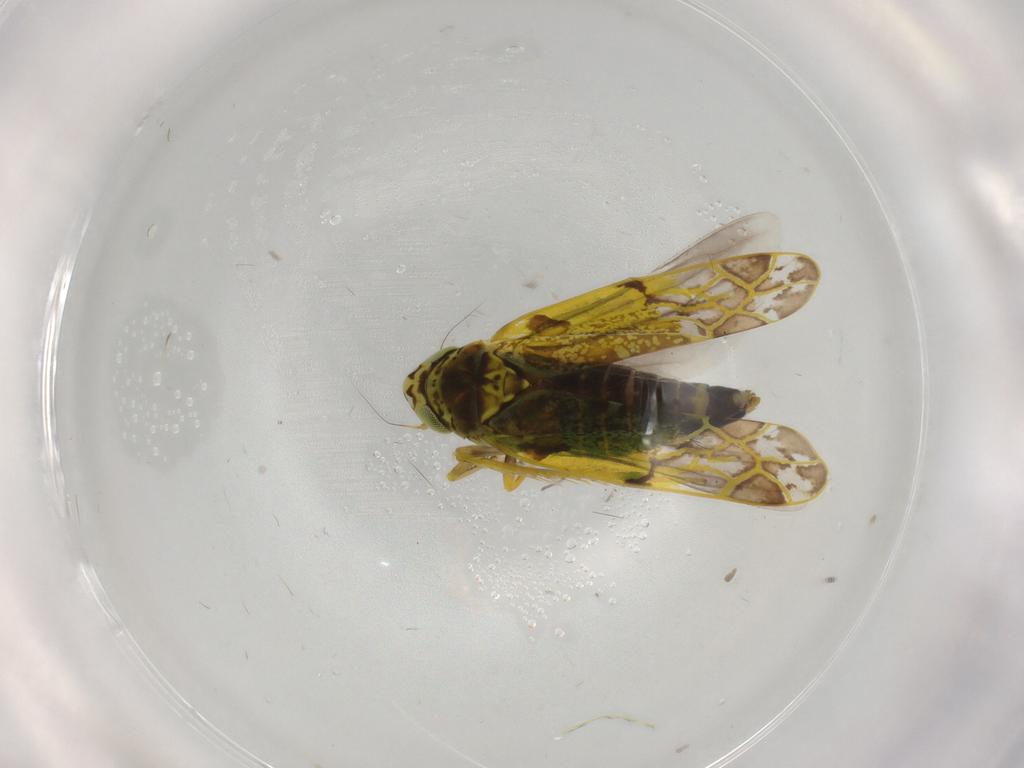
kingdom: Animalia
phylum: Arthropoda
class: Insecta
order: Hemiptera
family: Cicadellidae
